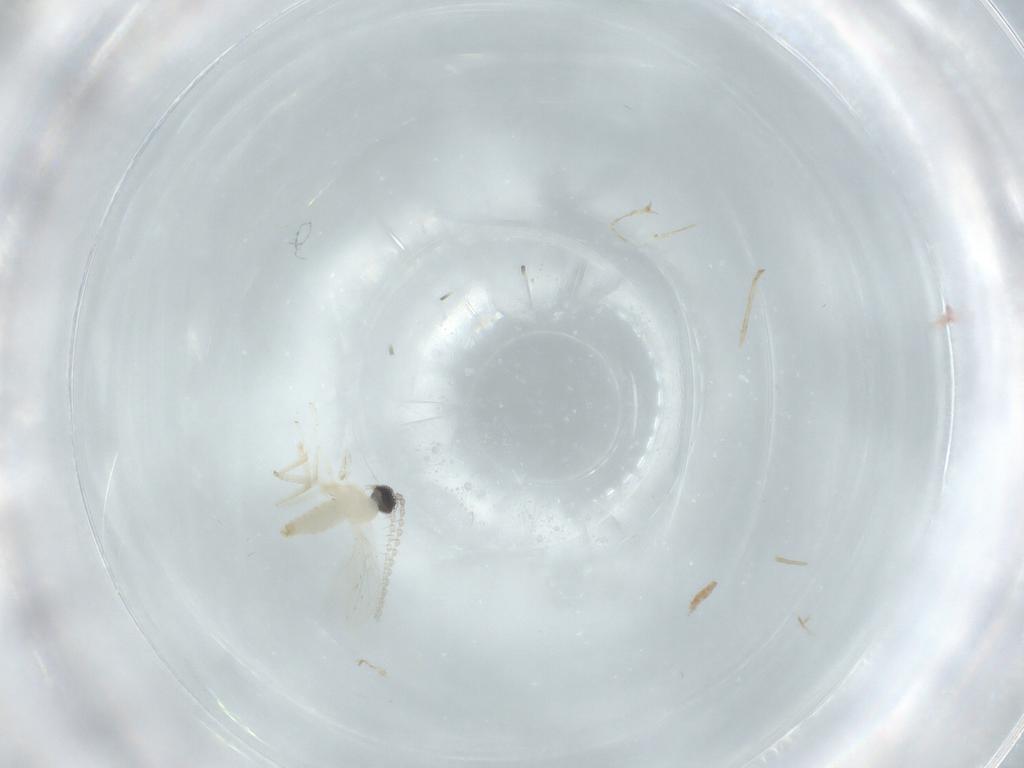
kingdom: Animalia
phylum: Arthropoda
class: Insecta
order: Diptera
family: Cecidomyiidae
